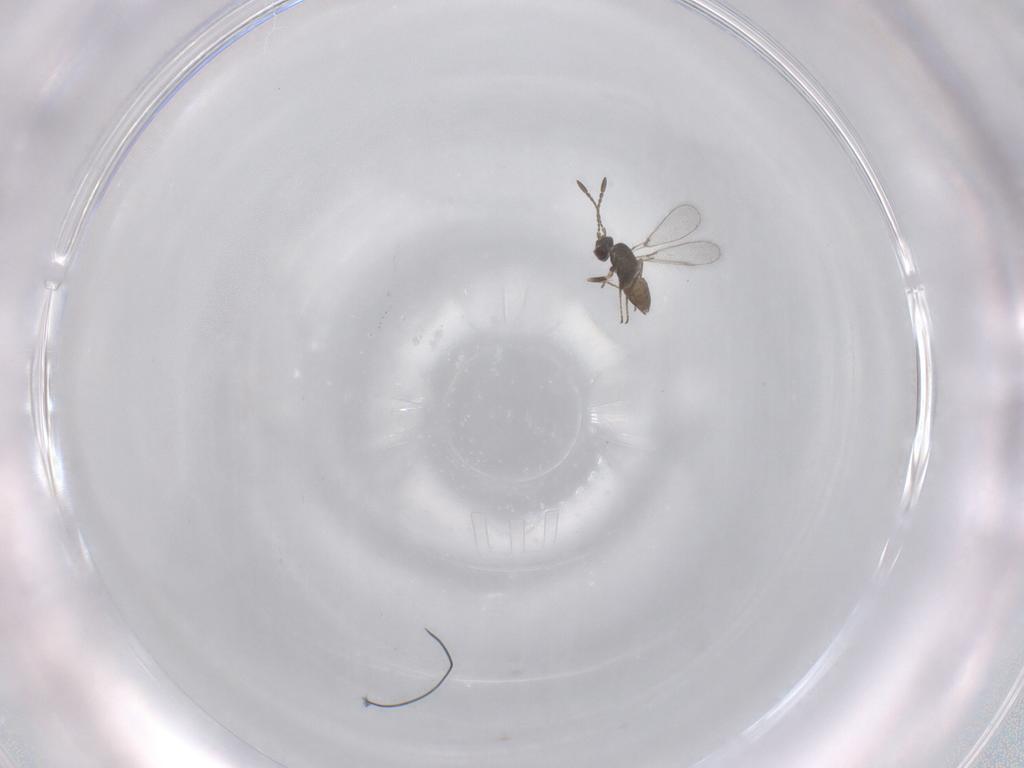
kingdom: Animalia
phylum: Arthropoda
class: Insecta
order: Hymenoptera
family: Mymaridae
